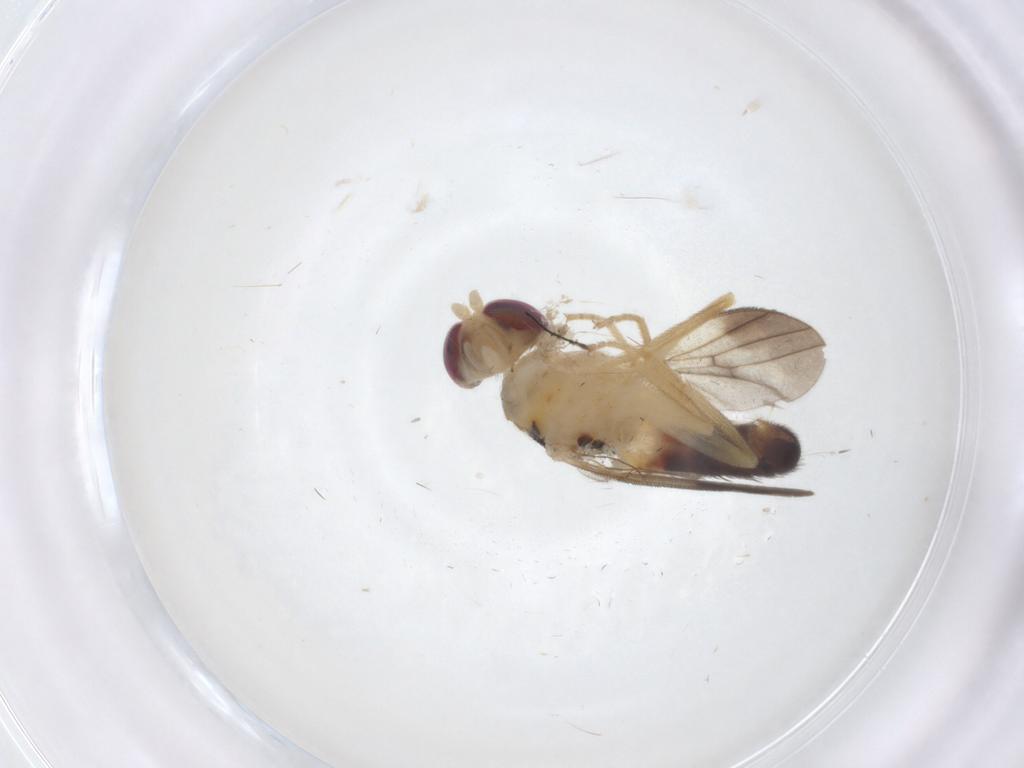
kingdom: Animalia
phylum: Arthropoda
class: Insecta
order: Diptera
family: Clusiidae
